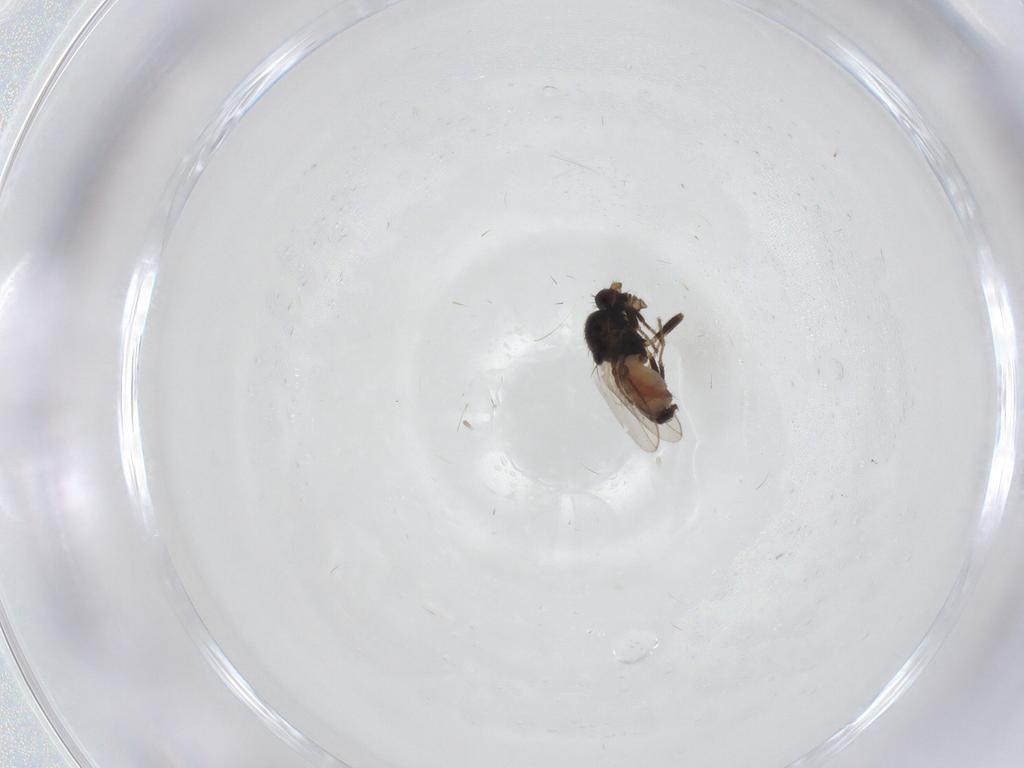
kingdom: Animalia
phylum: Arthropoda
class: Insecta
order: Diptera
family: Phoridae
